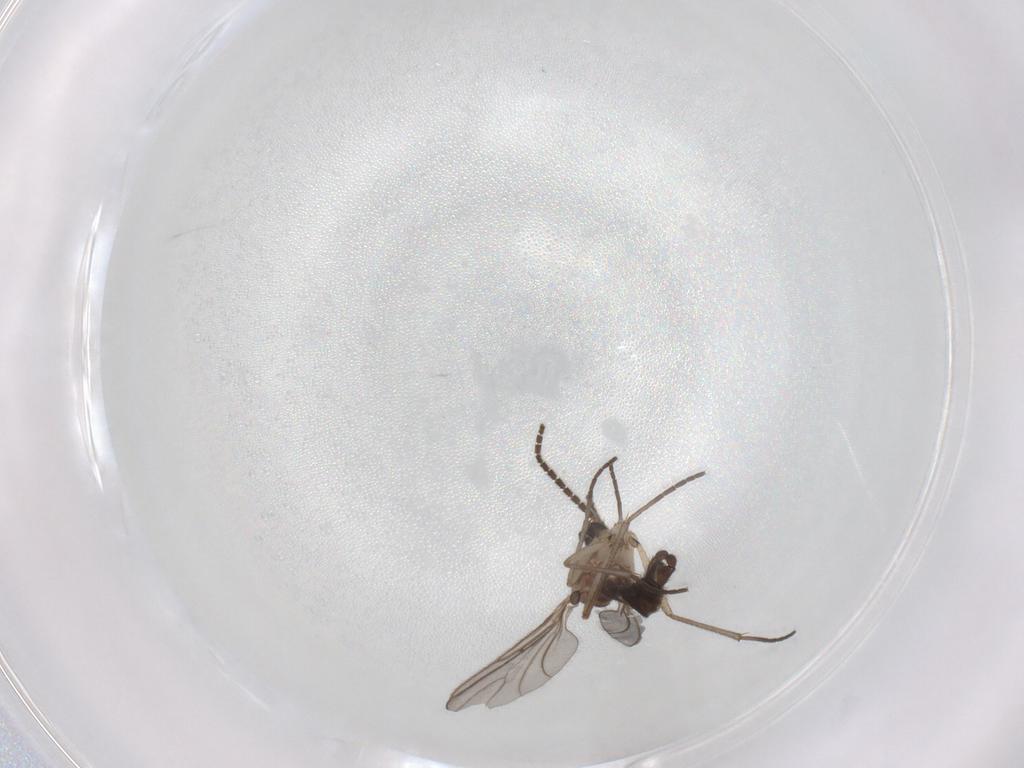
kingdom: Animalia
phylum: Arthropoda
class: Insecta
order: Diptera
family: Sciaridae
